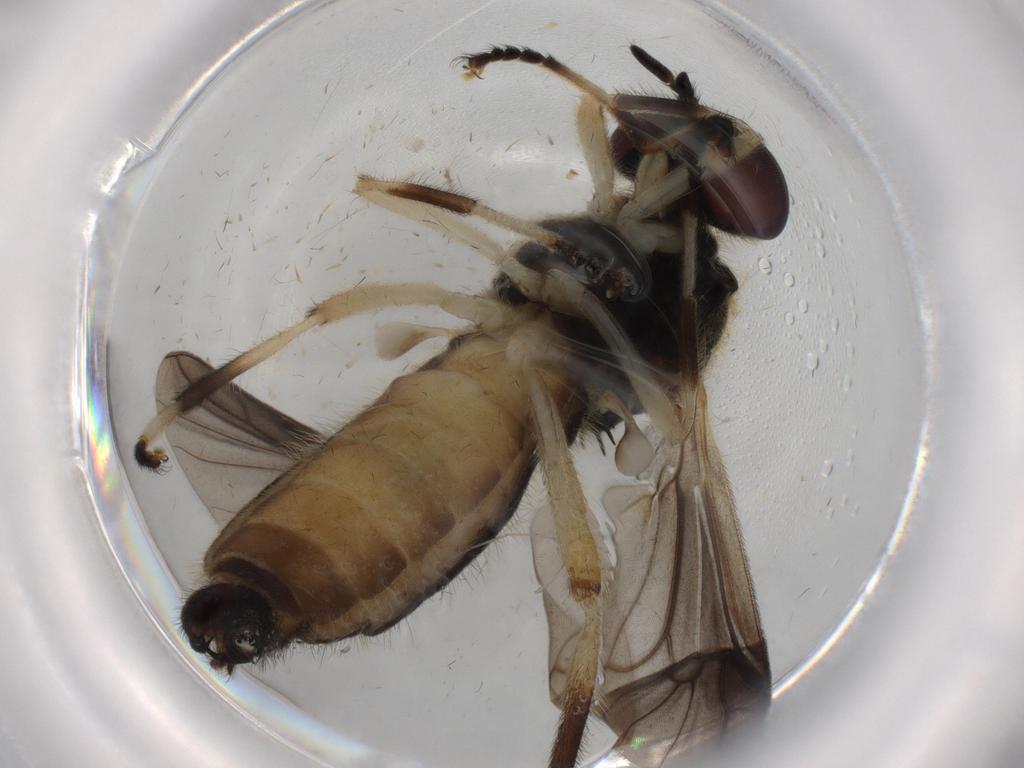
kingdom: Animalia
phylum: Arthropoda
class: Insecta
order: Diptera
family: Stratiomyidae
